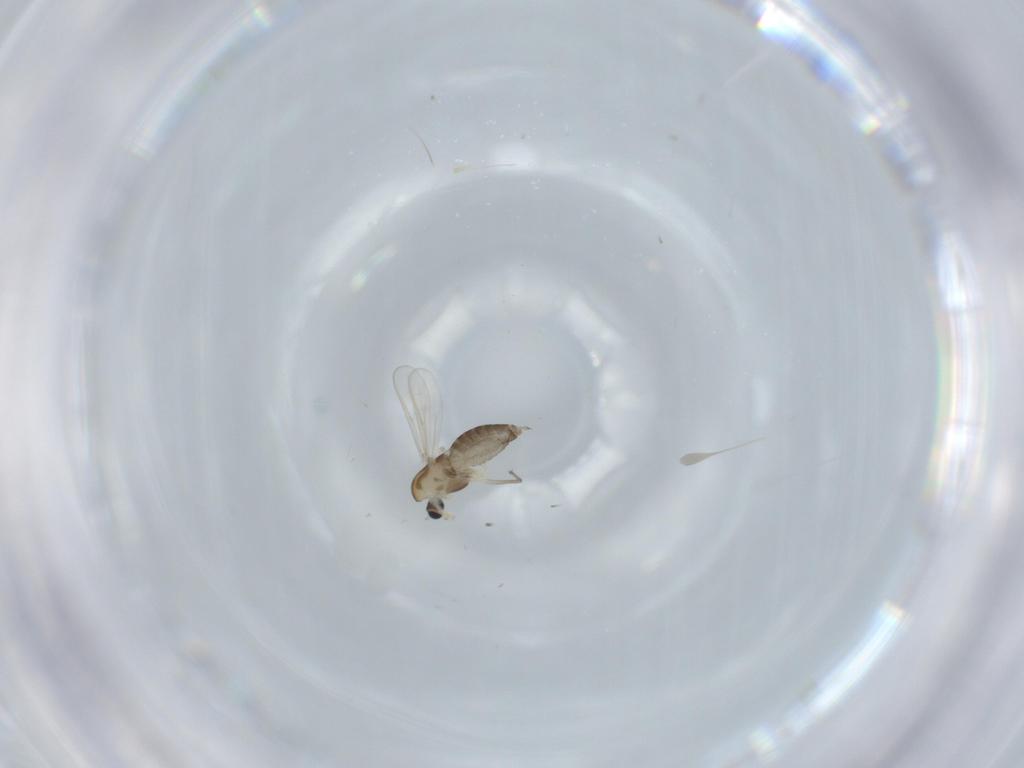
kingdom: Animalia
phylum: Arthropoda
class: Insecta
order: Diptera
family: Chironomidae
